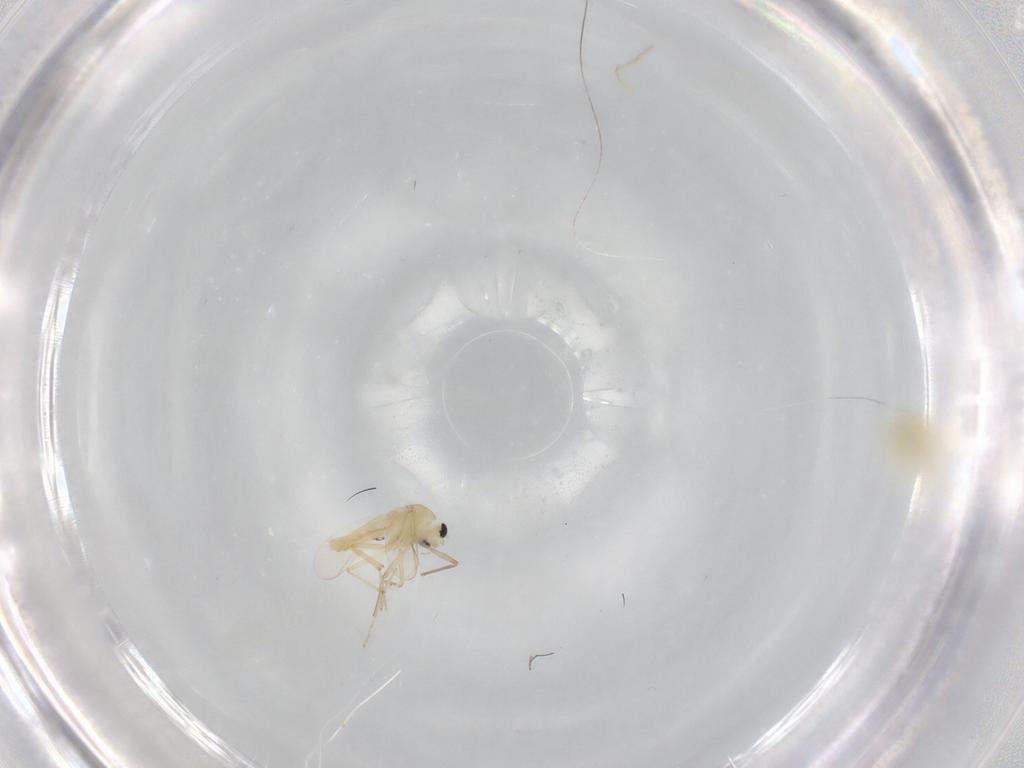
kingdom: Animalia
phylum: Arthropoda
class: Insecta
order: Hemiptera
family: Aleyrodidae
